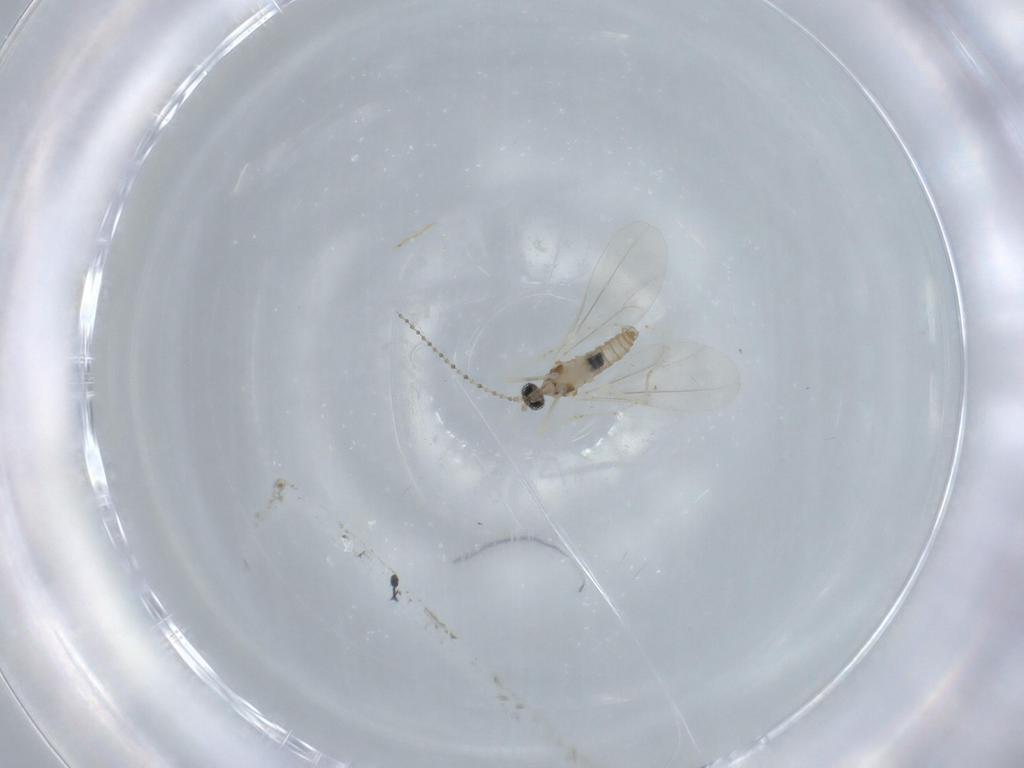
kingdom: Animalia
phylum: Arthropoda
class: Insecta
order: Diptera
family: Cecidomyiidae
